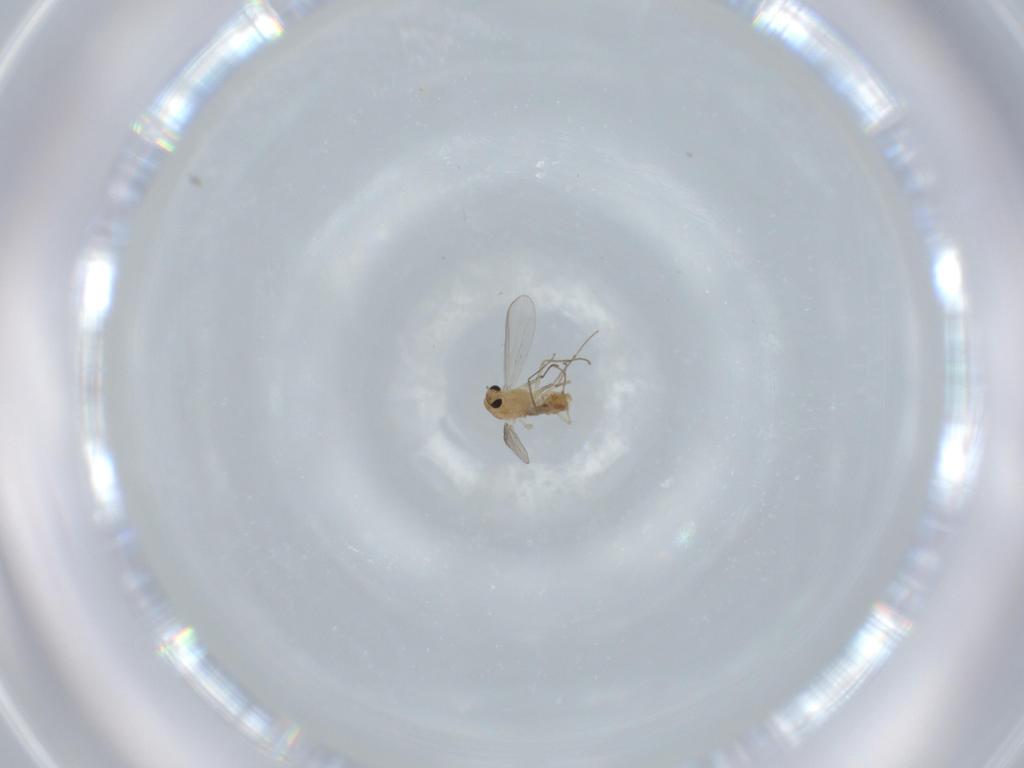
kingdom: Animalia
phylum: Arthropoda
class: Insecta
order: Diptera
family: Chironomidae
